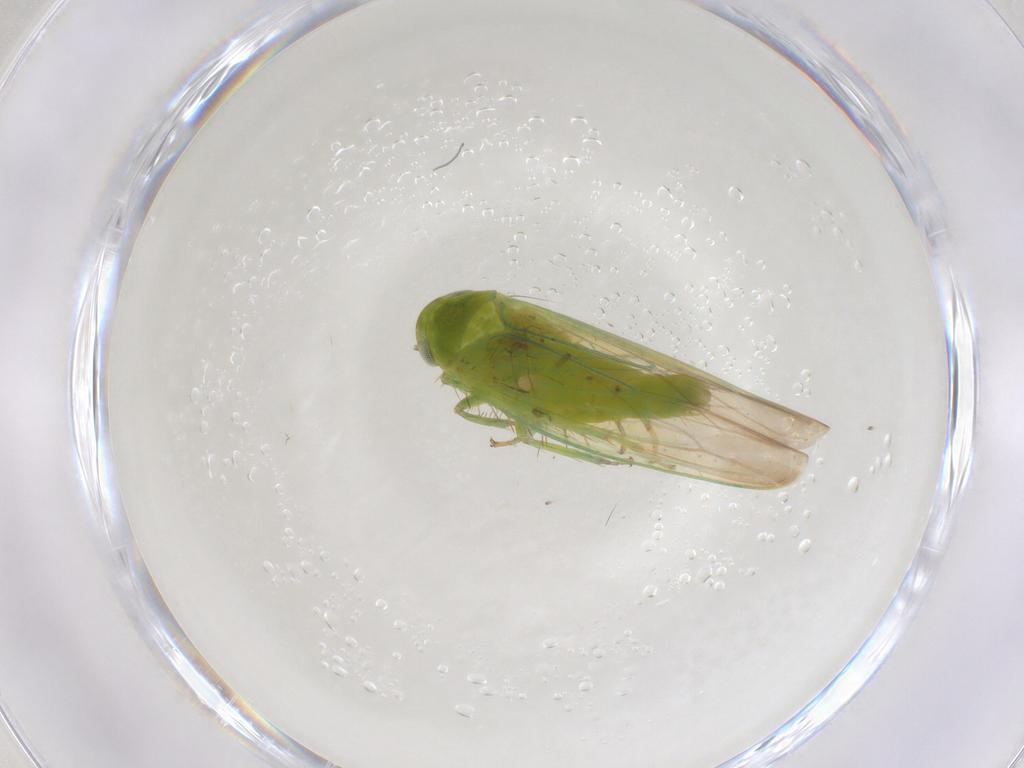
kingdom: Animalia
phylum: Arthropoda
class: Insecta
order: Hemiptera
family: Cicadellidae
